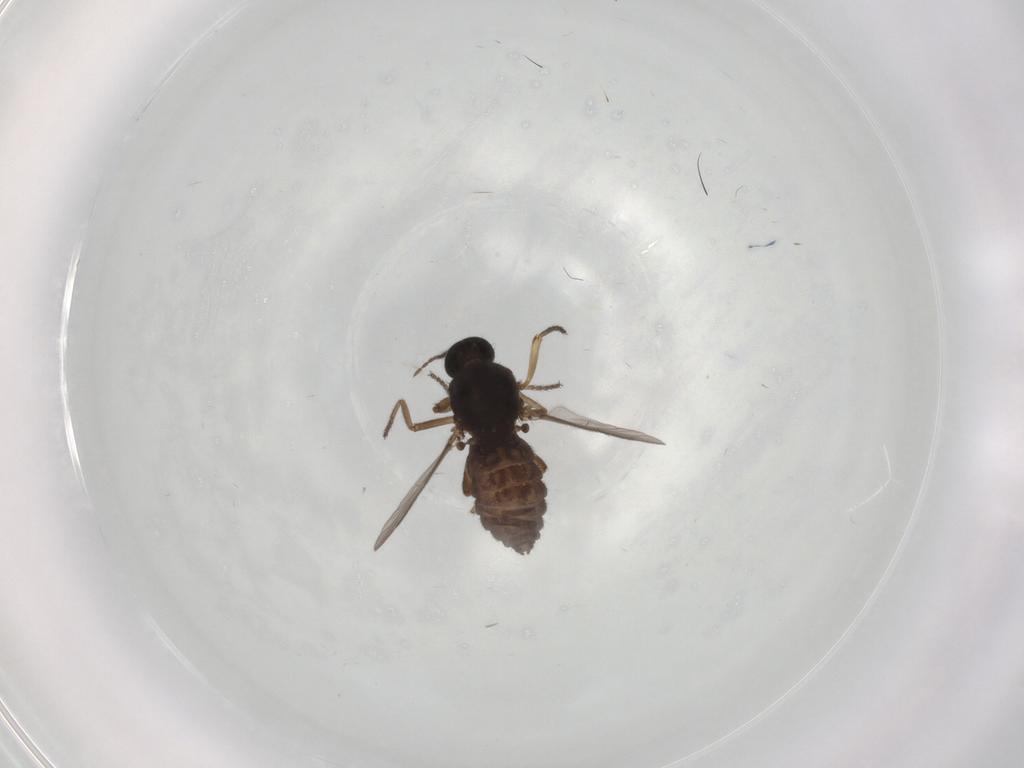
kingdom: Animalia
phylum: Arthropoda
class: Insecta
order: Diptera
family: Ceratopogonidae
